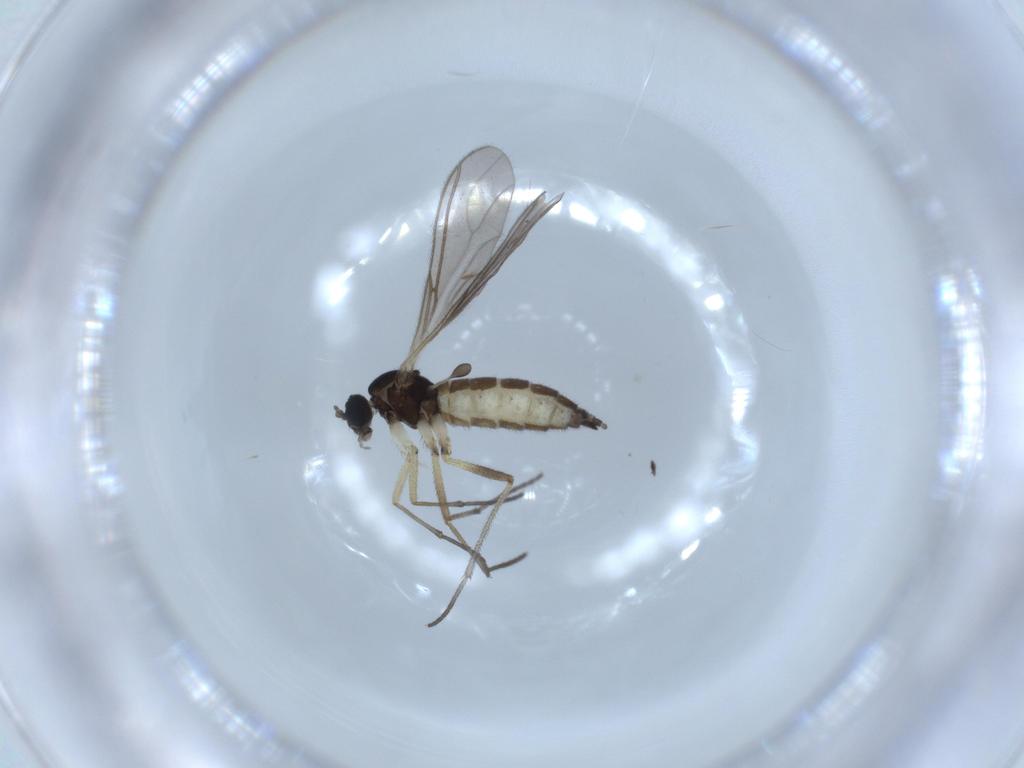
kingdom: Animalia
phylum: Arthropoda
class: Insecta
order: Diptera
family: Sciaridae
